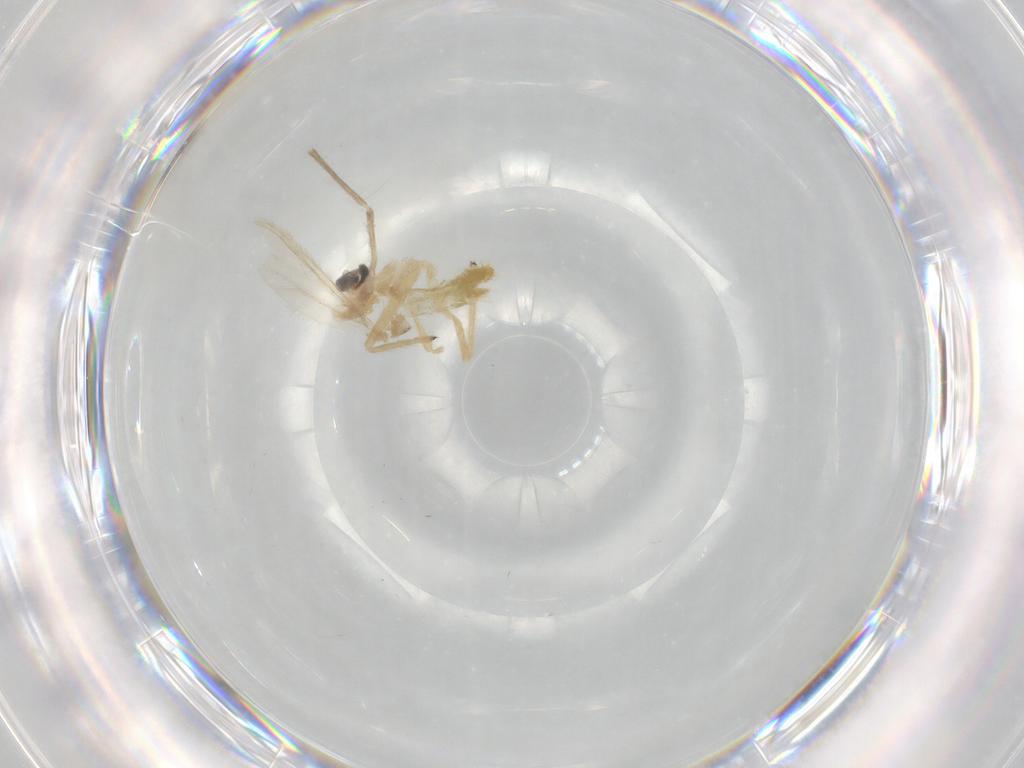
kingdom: Animalia
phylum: Arthropoda
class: Insecta
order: Diptera
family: Chironomidae
